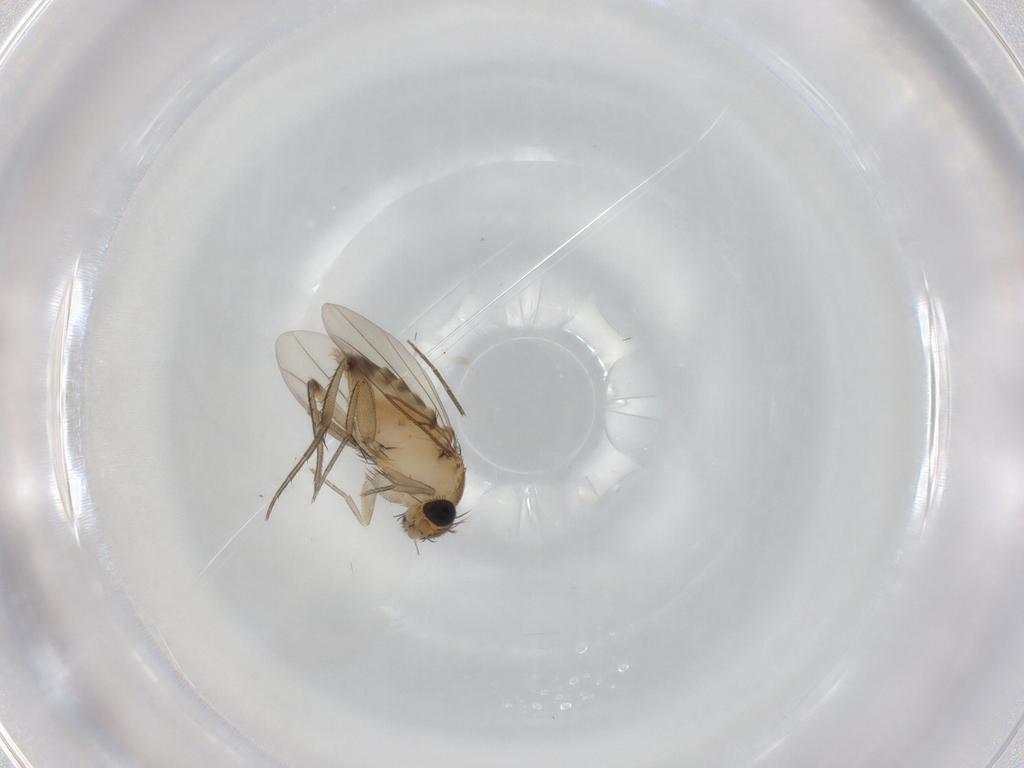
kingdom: Animalia
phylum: Arthropoda
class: Insecta
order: Diptera
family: Phoridae
